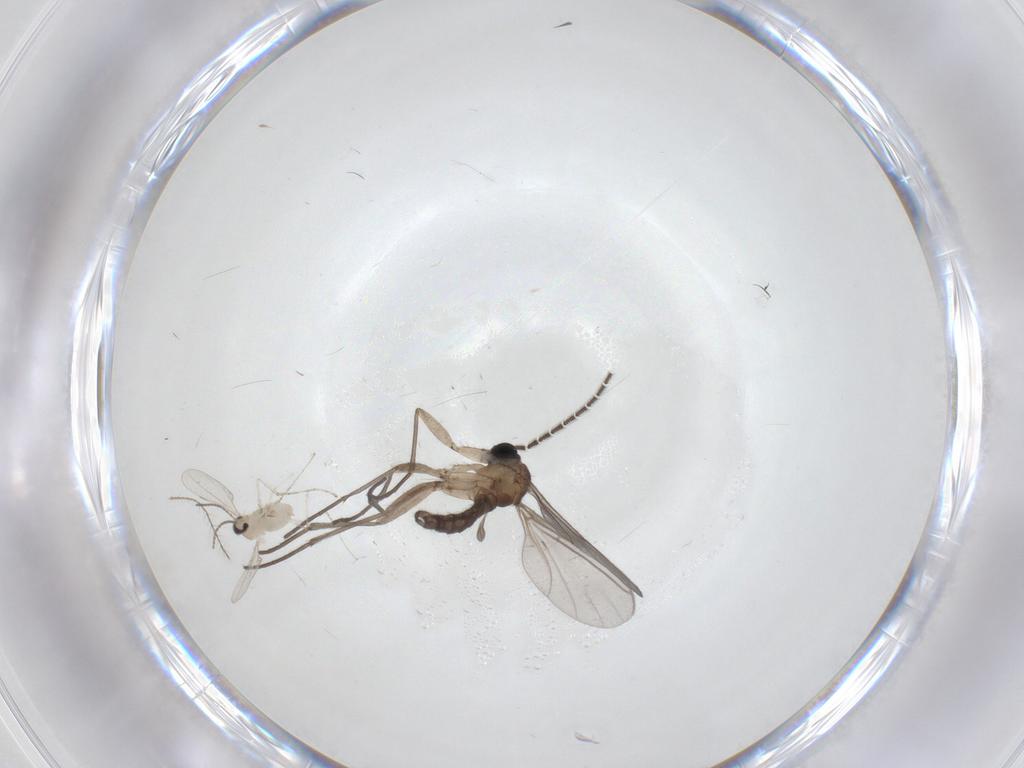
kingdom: Animalia
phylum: Arthropoda
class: Insecta
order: Diptera
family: Sciaridae
